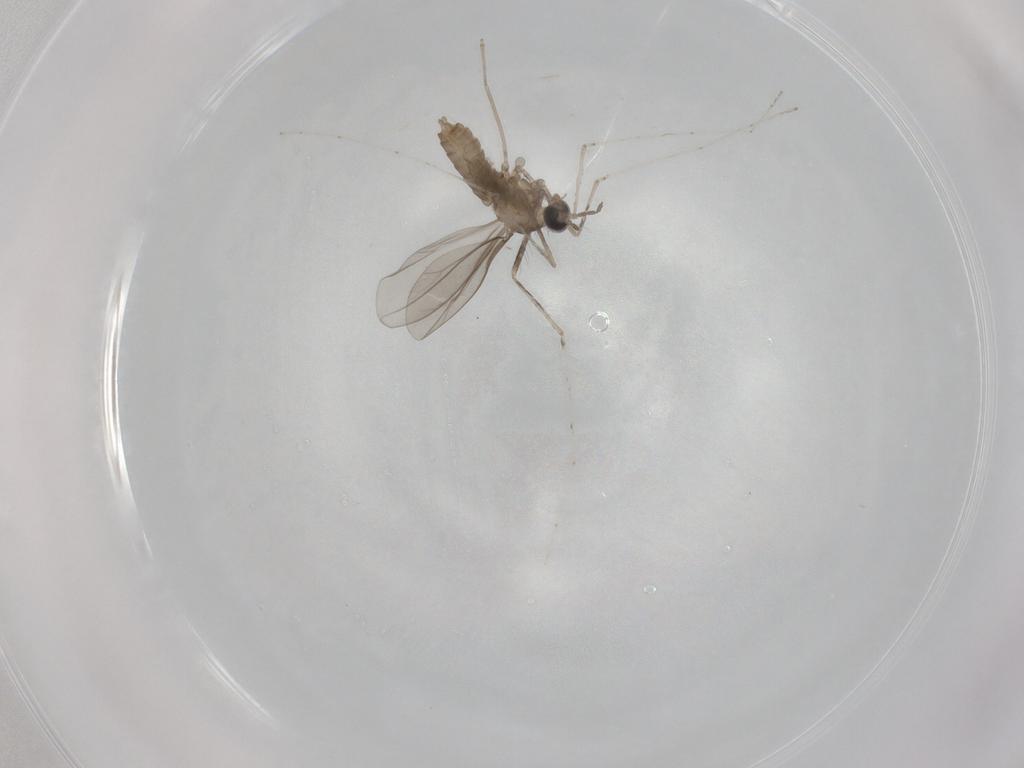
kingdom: Animalia
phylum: Arthropoda
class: Insecta
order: Diptera
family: Cecidomyiidae
